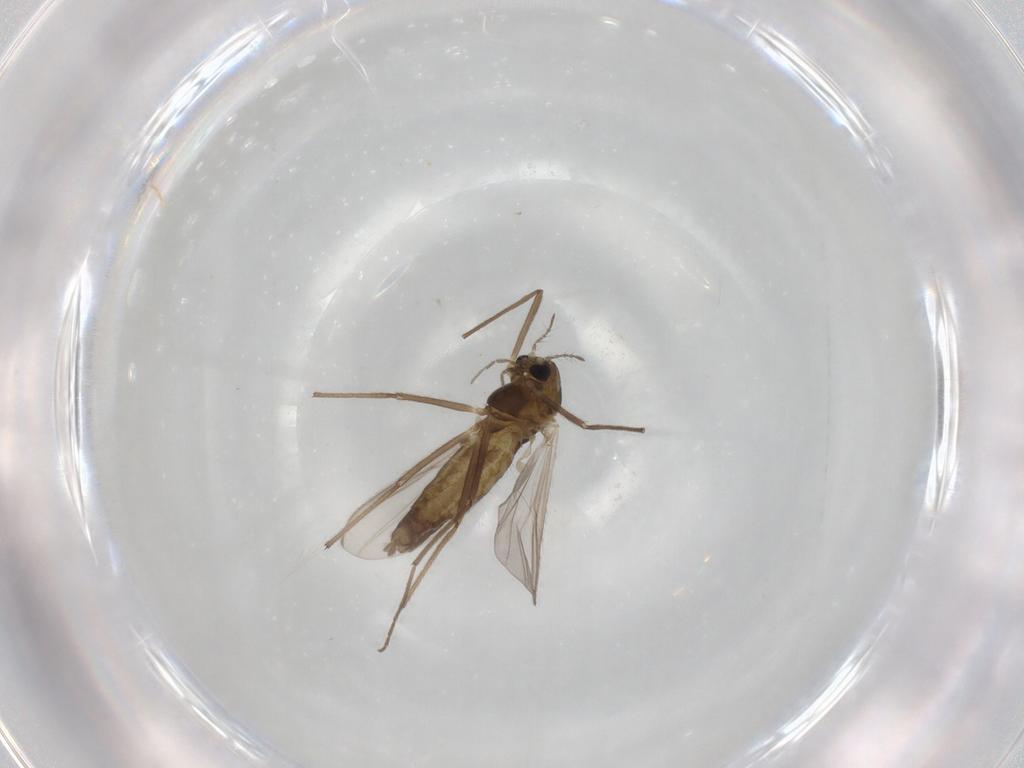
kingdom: Animalia
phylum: Arthropoda
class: Insecta
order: Diptera
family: Chironomidae
